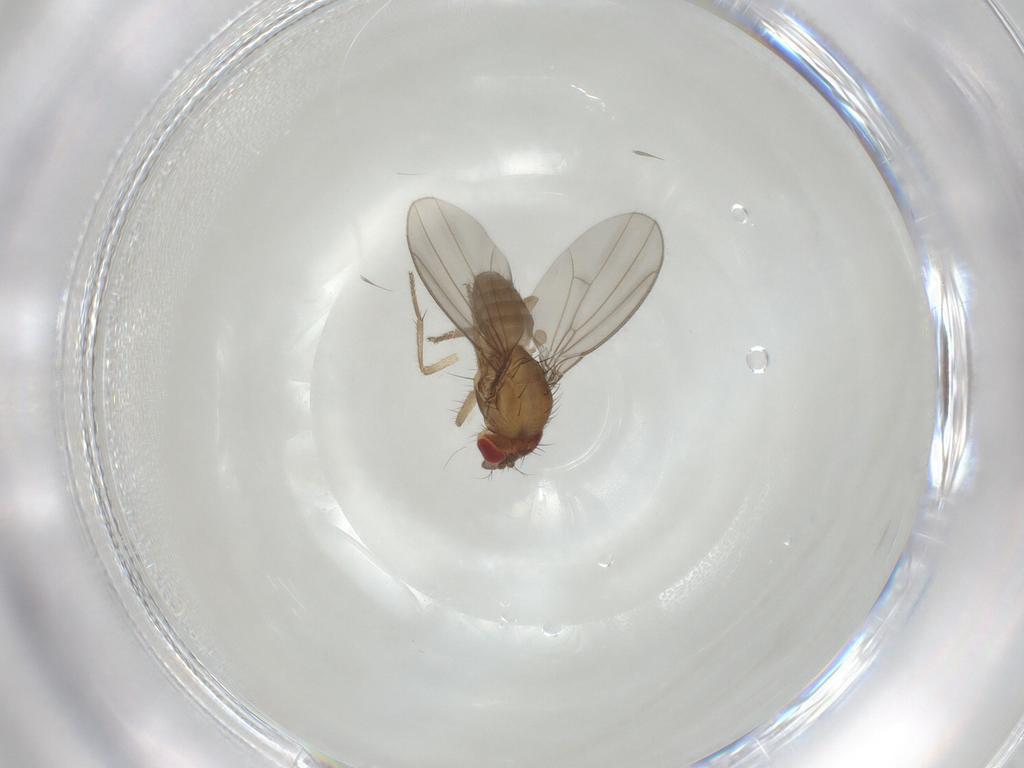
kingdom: Animalia
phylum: Arthropoda
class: Insecta
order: Diptera
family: Drosophilidae
